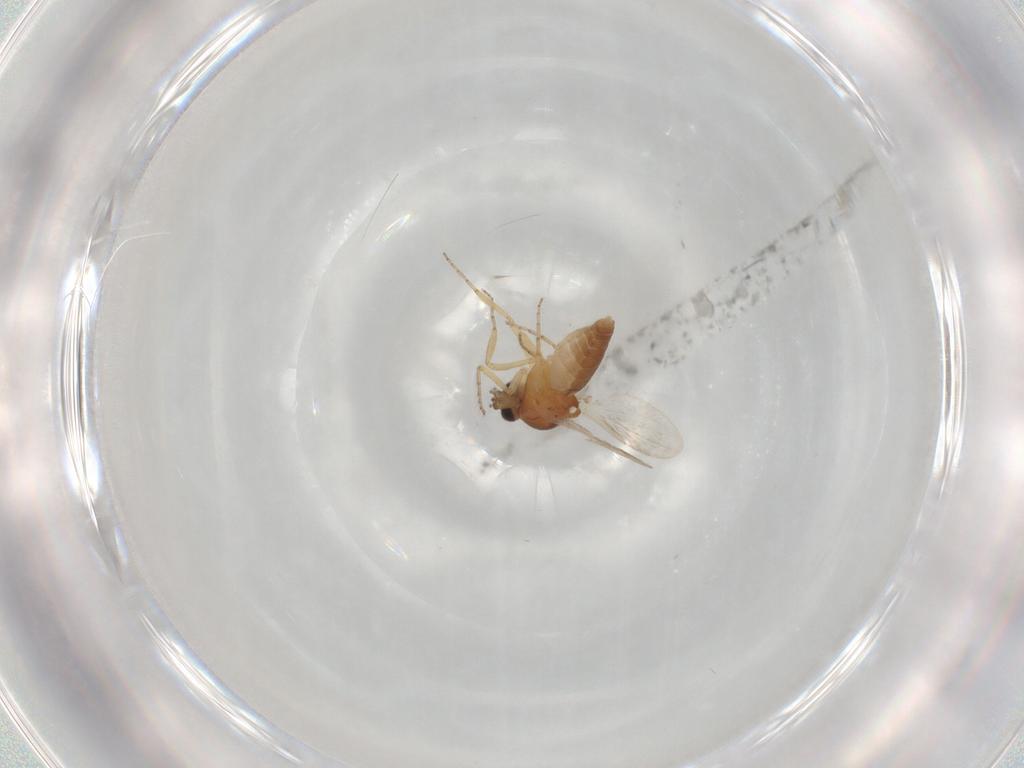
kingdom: Animalia
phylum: Arthropoda
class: Insecta
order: Diptera
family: Ceratopogonidae
